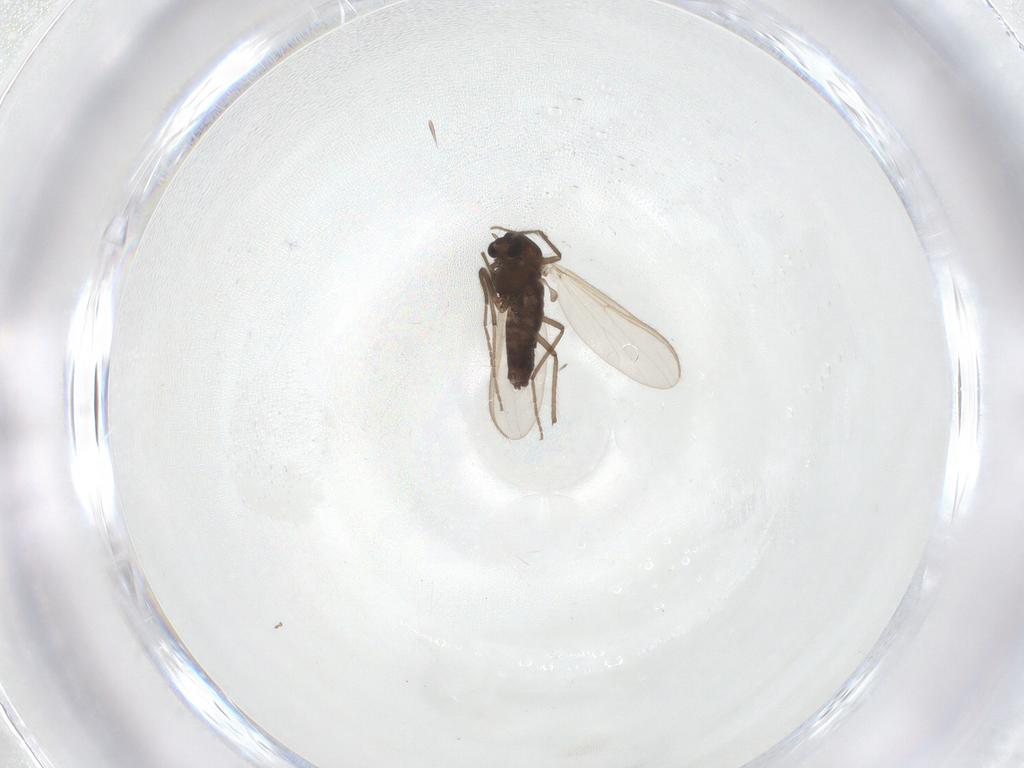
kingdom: Animalia
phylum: Arthropoda
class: Insecta
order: Diptera
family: Chironomidae
